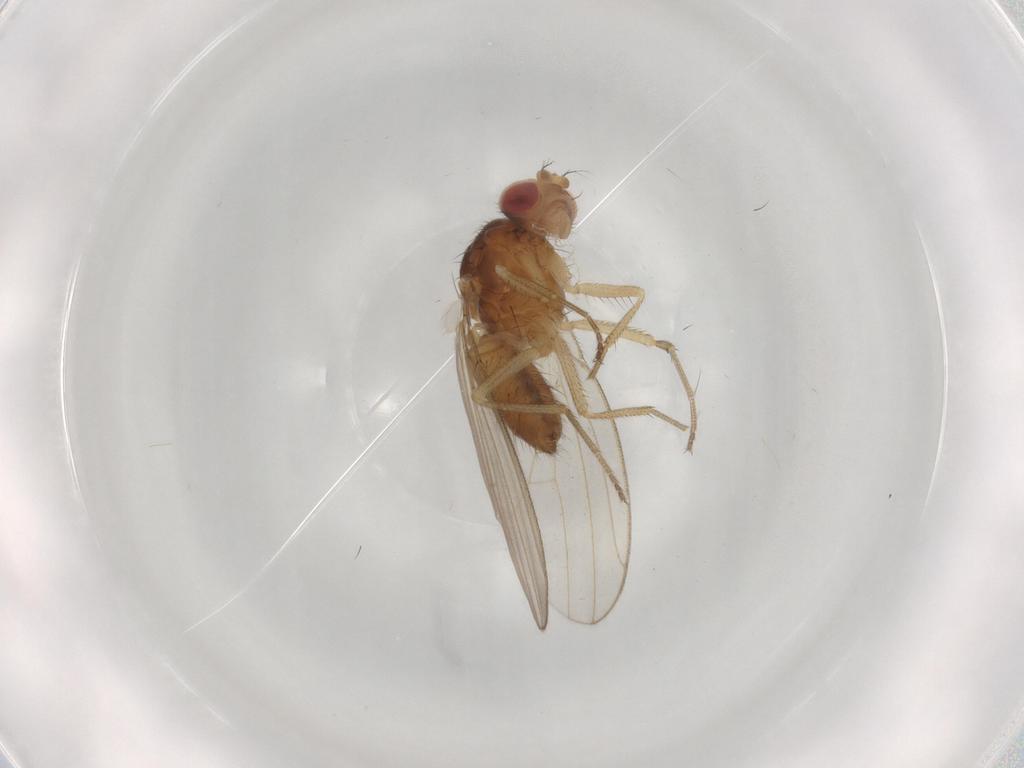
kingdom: Animalia
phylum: Arthropoda
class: Insecta
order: Diptera
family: Drosophilidae
